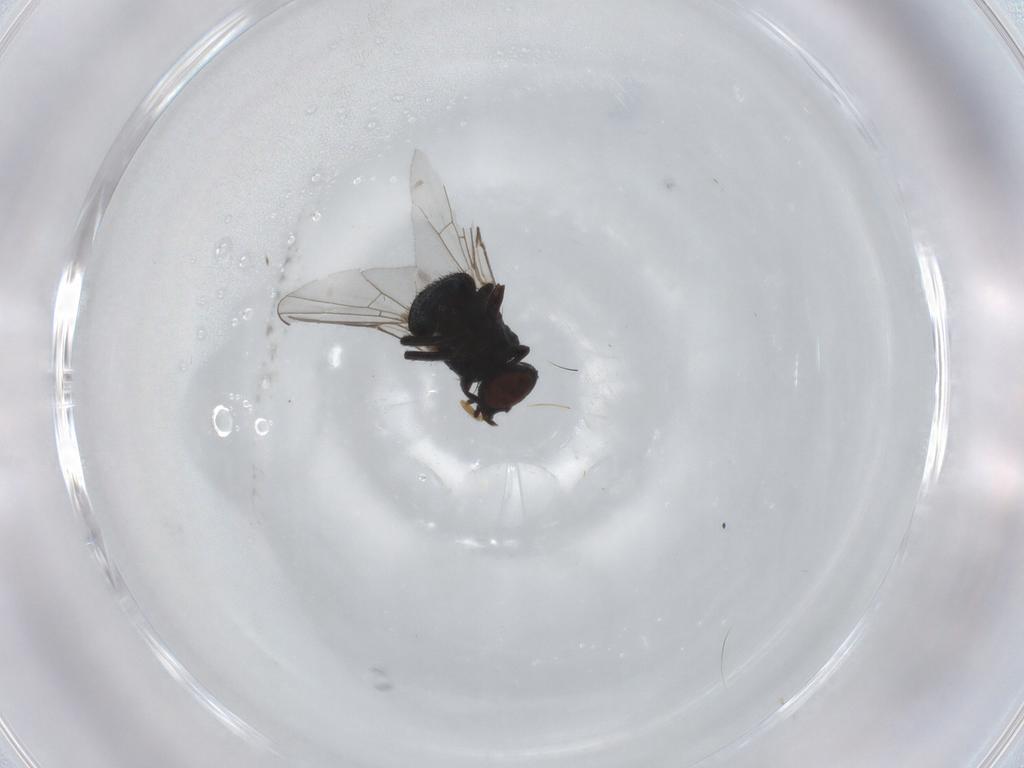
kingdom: Animalia
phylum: Arthropoda
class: Insecta
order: Diptera
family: Agromyzidae
